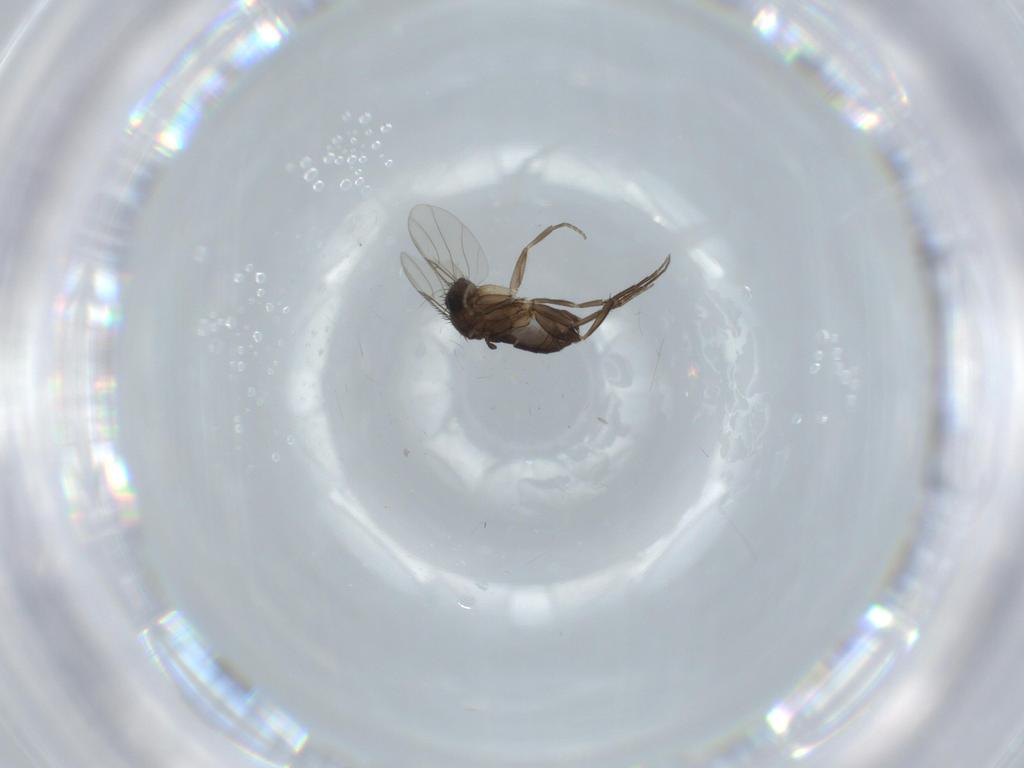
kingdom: Animalia
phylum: Arthropoda
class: Insecta
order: Diptera
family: Phoridae
